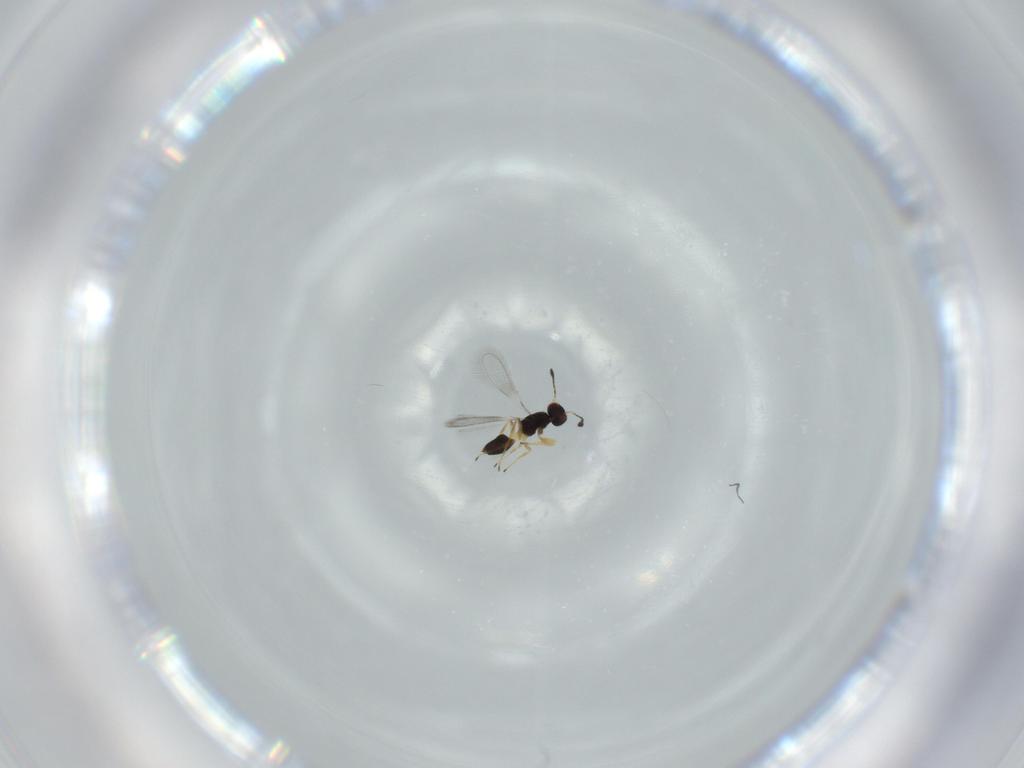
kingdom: Animalia
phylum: Arthropoda
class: Insecta
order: Hymenoptera
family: Mymaridae
